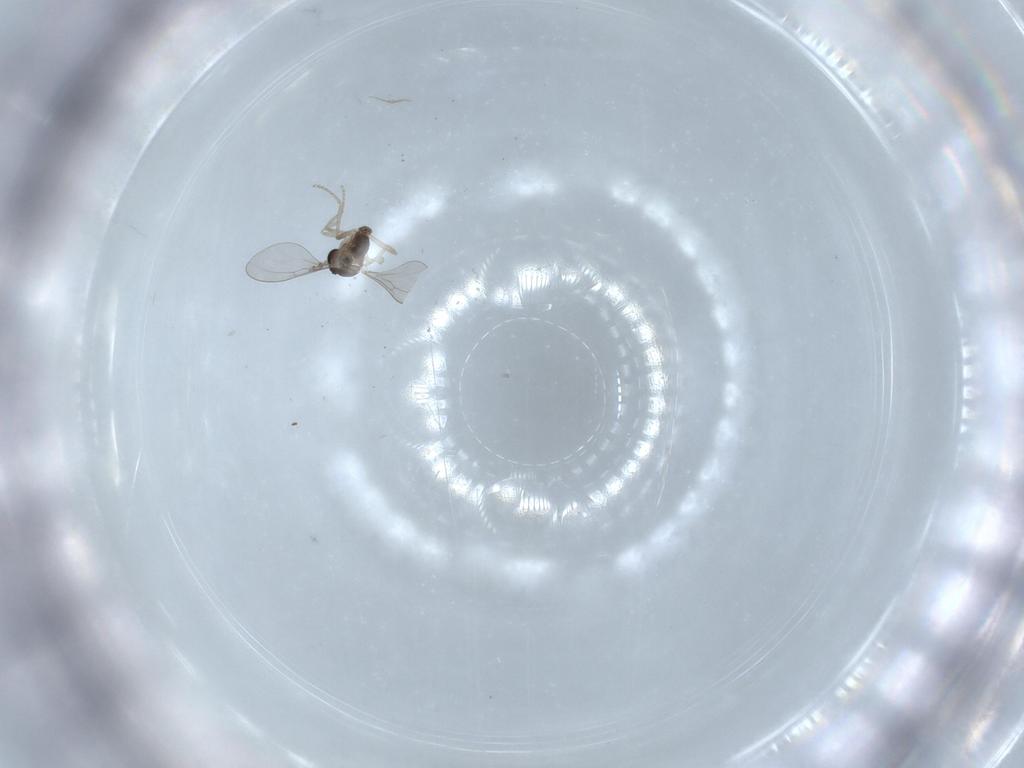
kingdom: Animalia
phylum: Arthropoda
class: Insecta
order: Diptera
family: Cecidomyiidae
